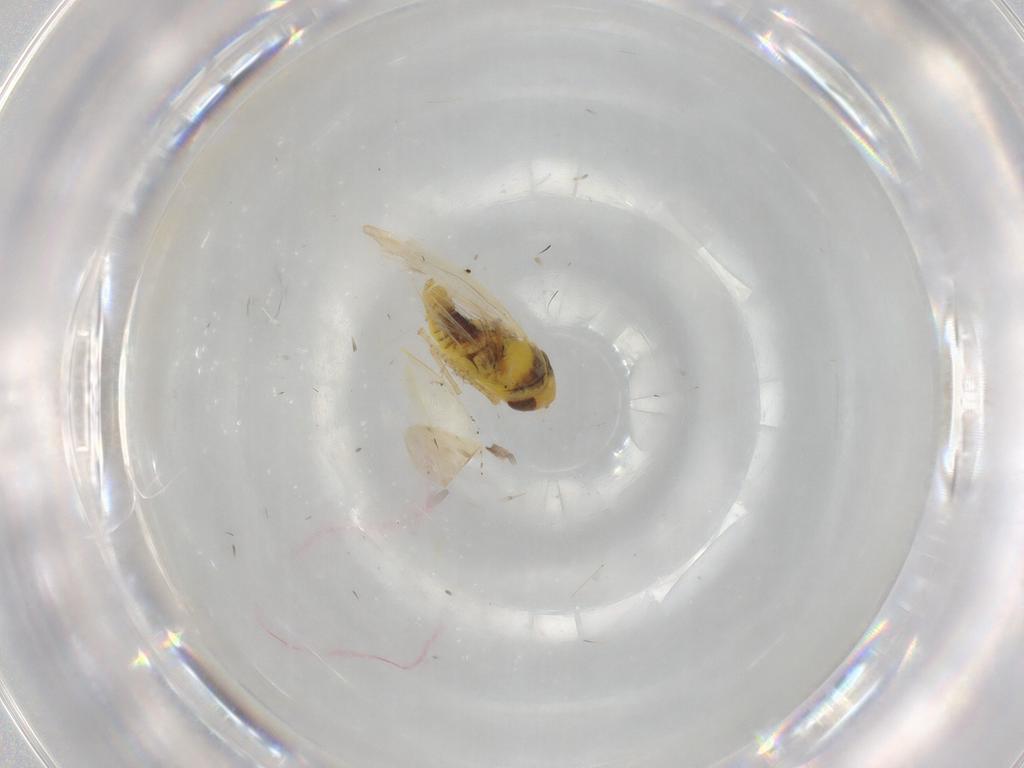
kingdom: Animalia
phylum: Arthropoda
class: Insecta
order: Hemiptera
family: Cicadellidae
